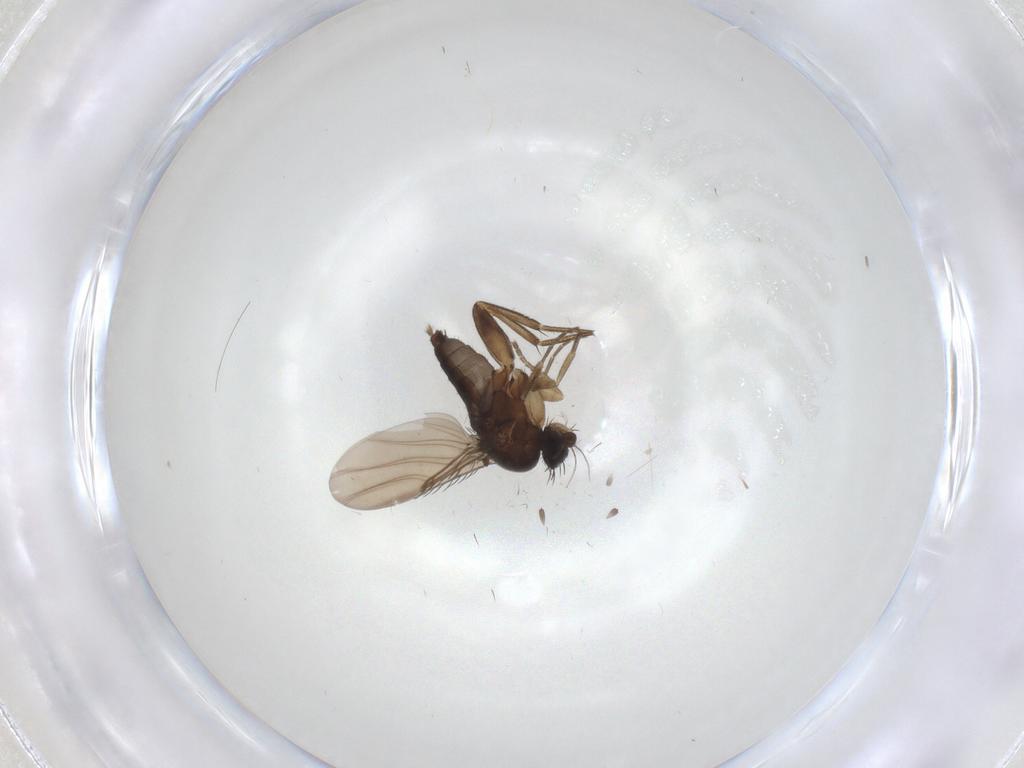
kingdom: Animalia
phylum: Arthropoda
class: Insecta
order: Diptera
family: Phoridae
